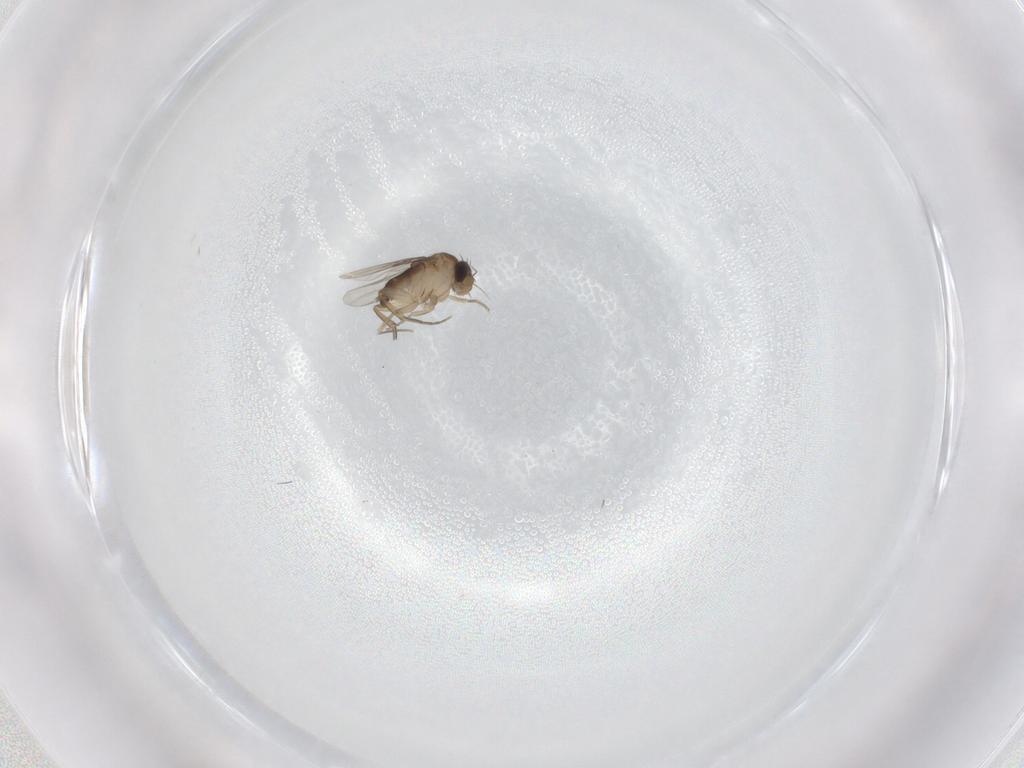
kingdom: Animalia
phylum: Arthropoda
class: Insecta
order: Diptera
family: Phoridae
